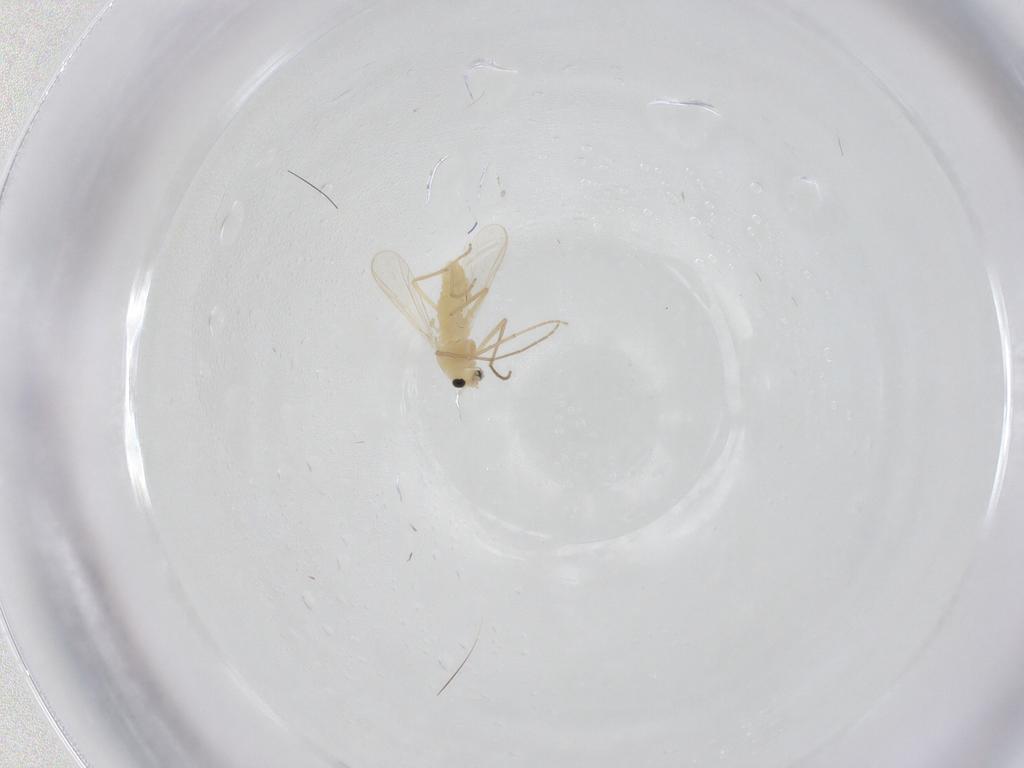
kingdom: Animalia
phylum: Arthropoda
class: Insecta
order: Diptera
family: Chironomidae
